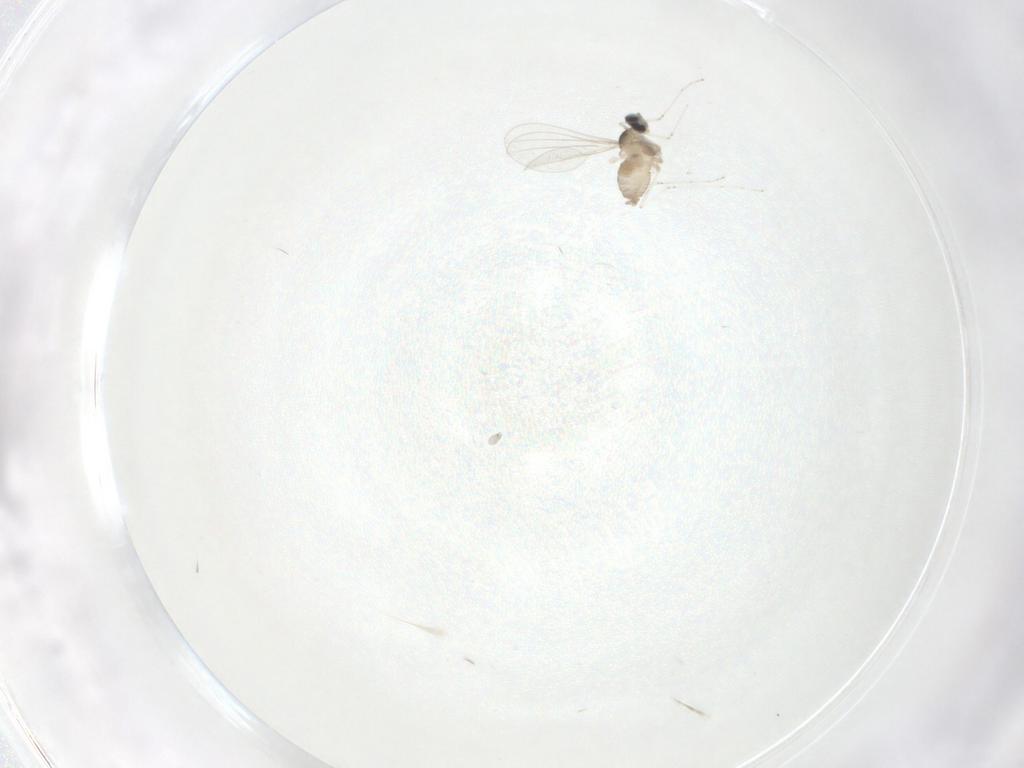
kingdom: Animalia
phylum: Arthropoda
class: Insecta
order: Diptera
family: Cecidomyiidae
